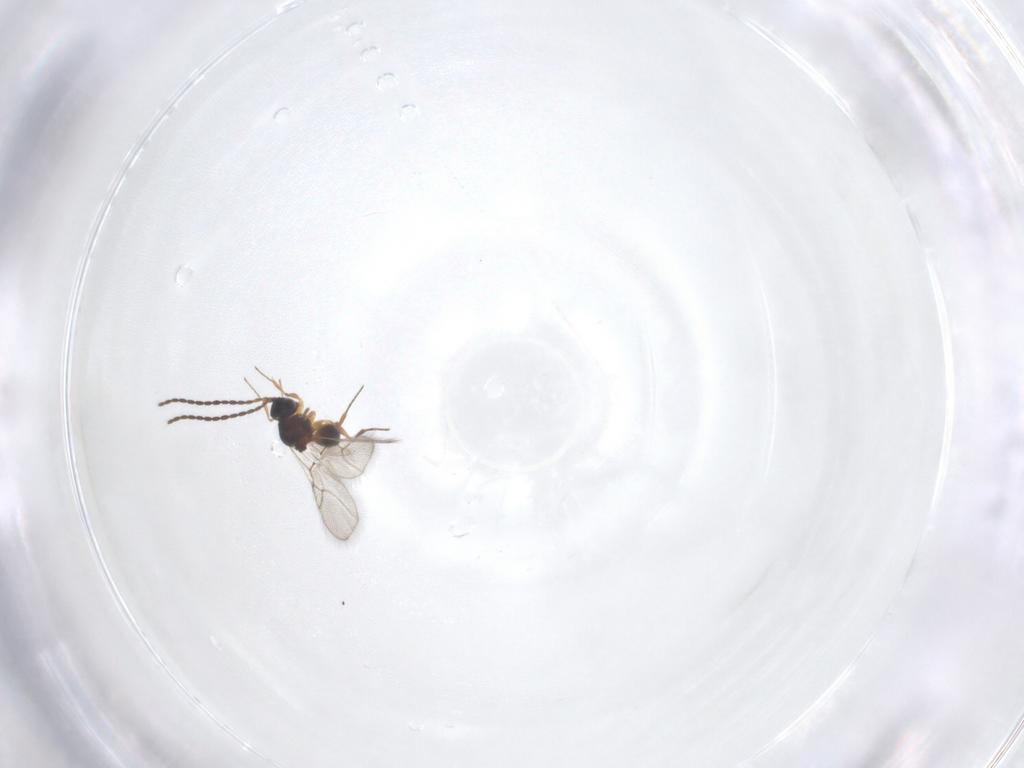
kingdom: Animalia
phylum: Arthropoda
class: Insecta
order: Hymenoptera
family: Figitidae
